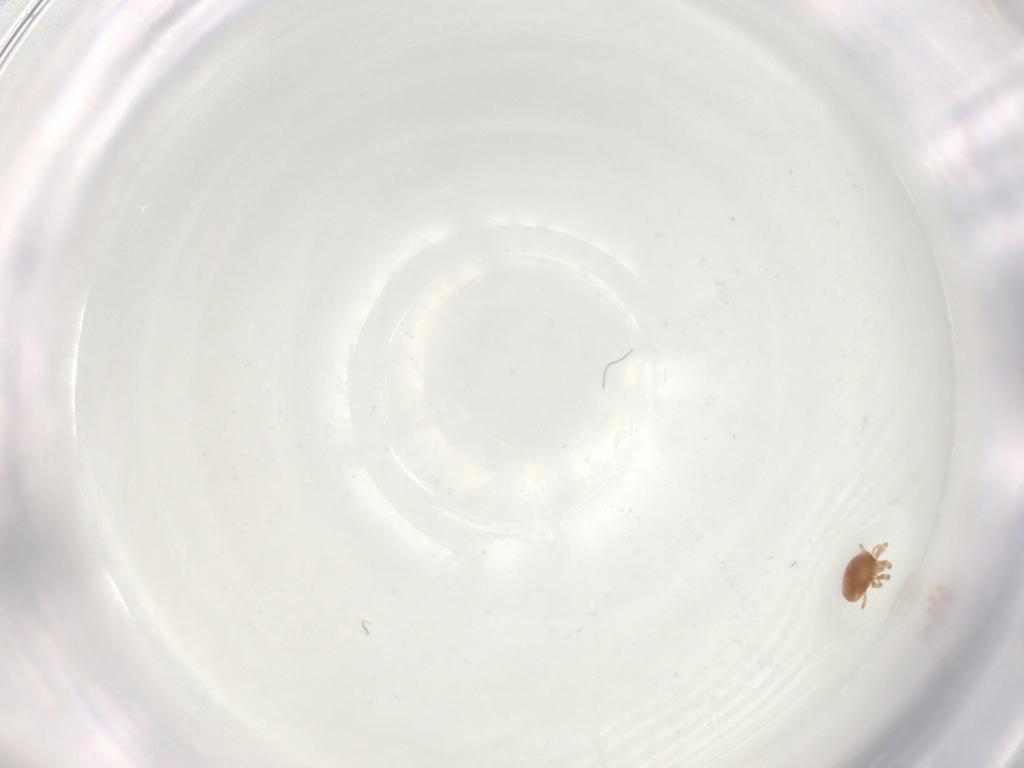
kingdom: Animalia
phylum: Arthropoda
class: Arachnida
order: Mesostigmata
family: Phytoseiidae
